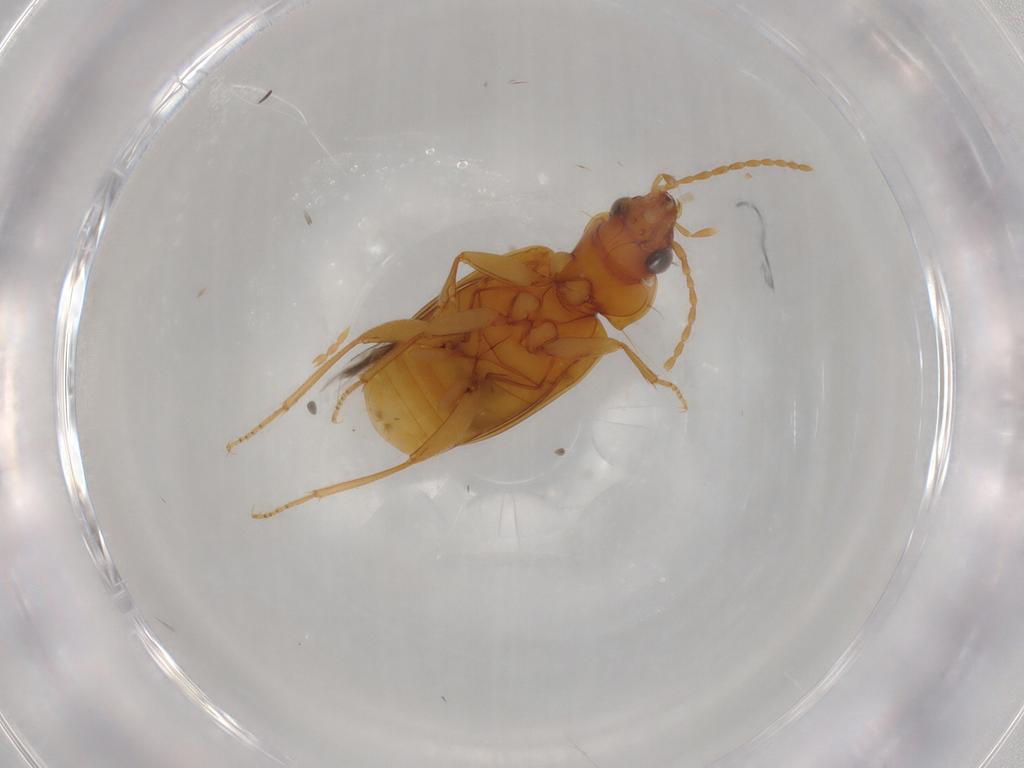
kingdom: Animalia
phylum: Arthropoda
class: Insecta
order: Coleoptera
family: Carabidae
